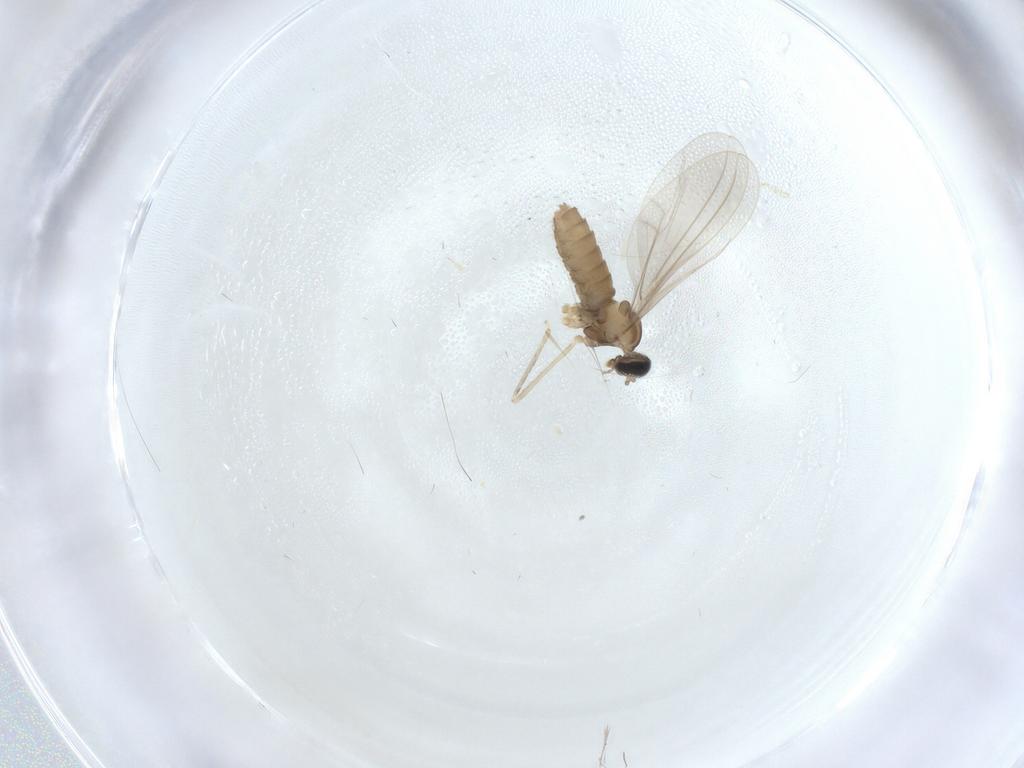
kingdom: Animalia
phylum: Arthropoda
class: Insecta
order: Diptera
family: Cecidomyiidae
